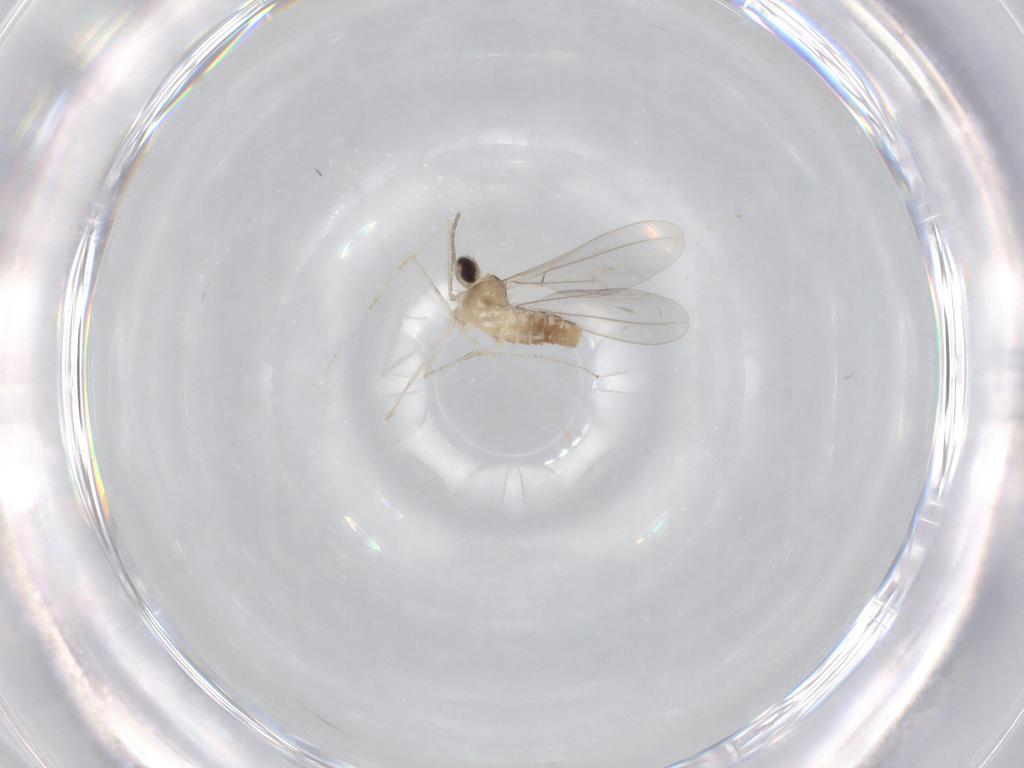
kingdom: Animalia
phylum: Arthropoda
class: Insecta
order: Diptera
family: Cecidomyiidae
